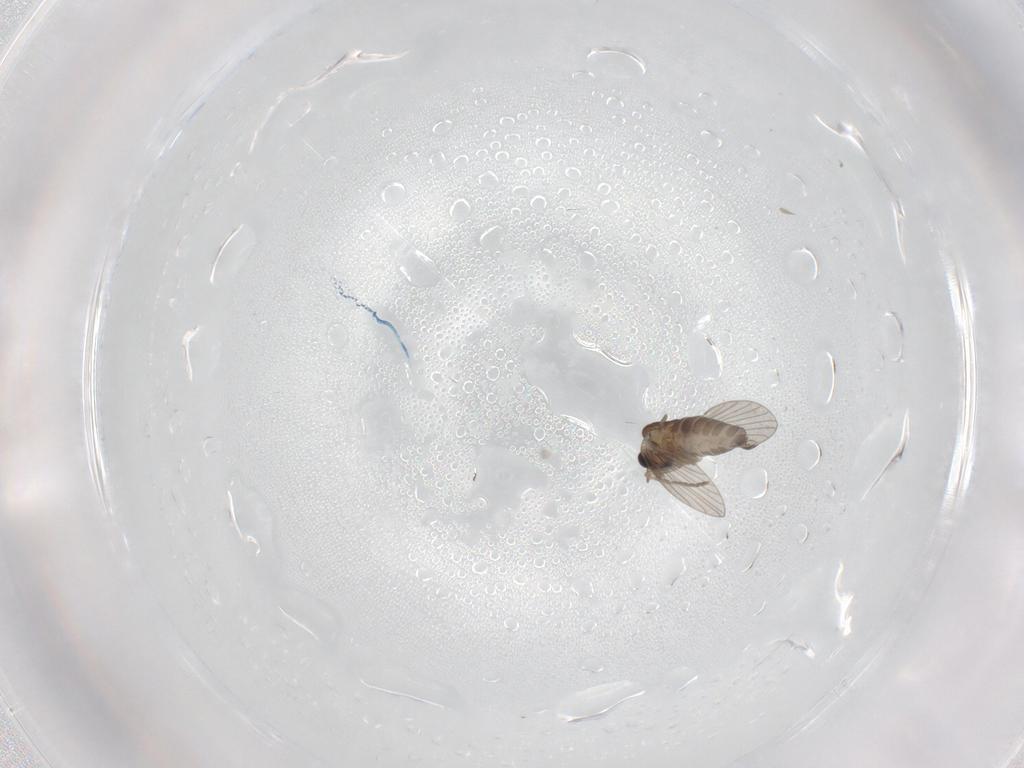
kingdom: Animalia
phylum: Arthropoda
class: Insecta
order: Diptera
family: Sciaridae
